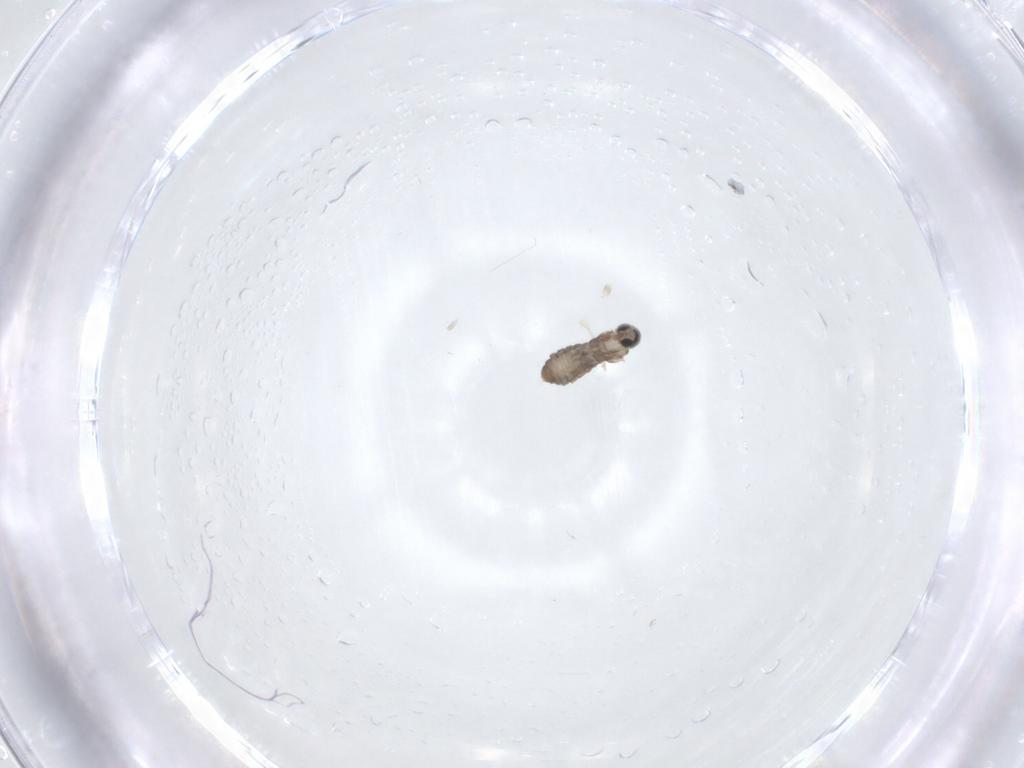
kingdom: Animalia
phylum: Arthropoda
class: Insecta
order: Diptera
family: Cecidomyiidae
